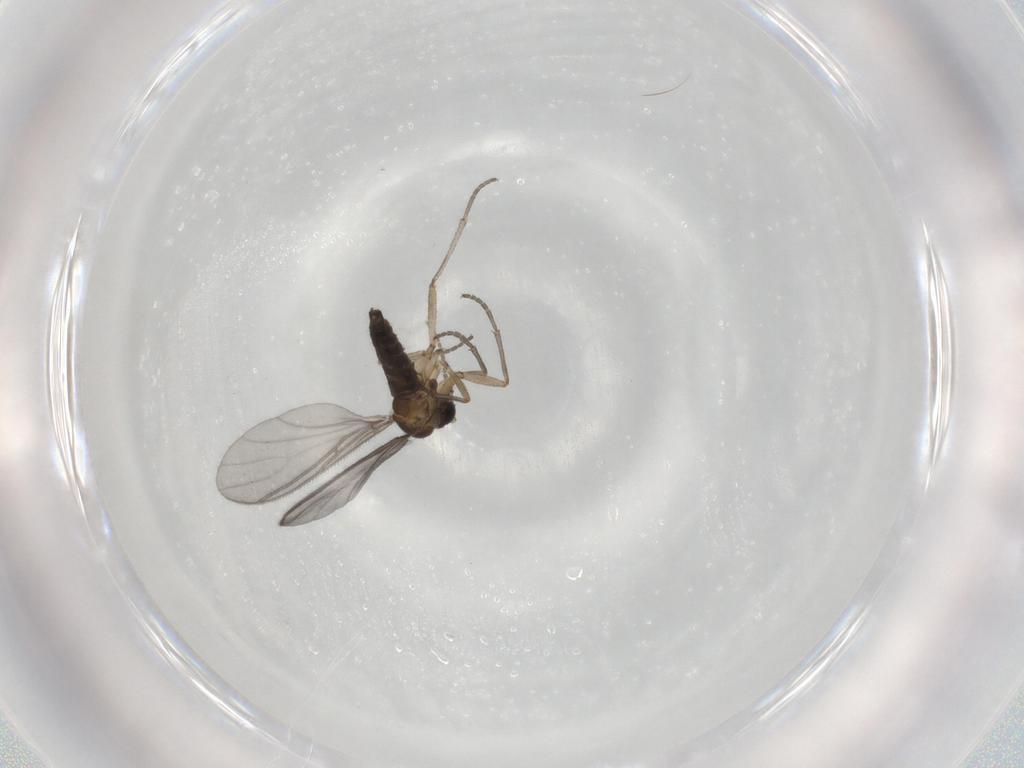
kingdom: Animalia
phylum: Arthropoda
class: Insecta
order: Diptera
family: Sciaridae
